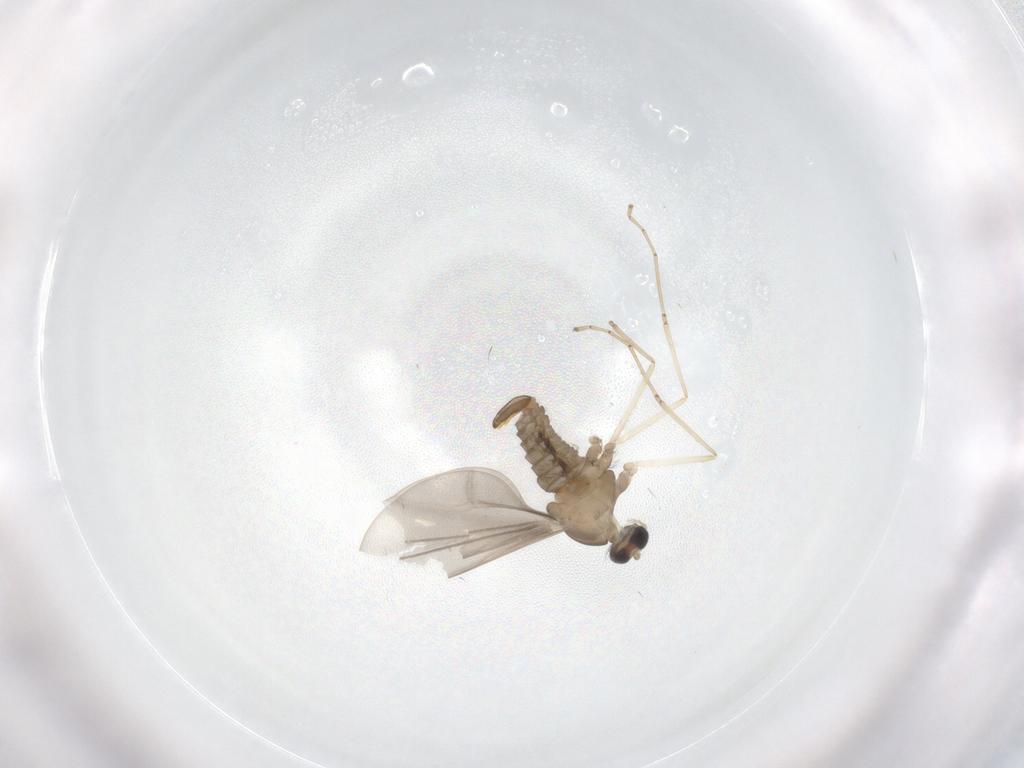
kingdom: Animalia
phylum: Arthropoda
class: Insecta
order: Diptera
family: Cecidomyiidae
